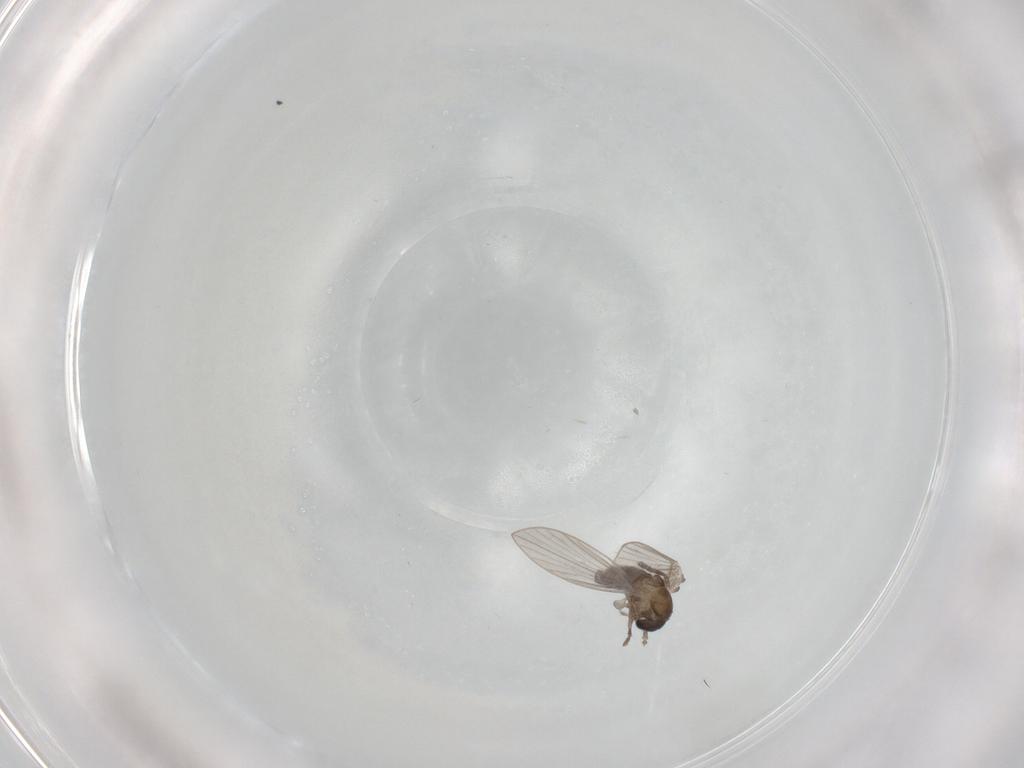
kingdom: Animalia
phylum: Arthropoda
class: Insecta
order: Diptera
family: Psychodidae
